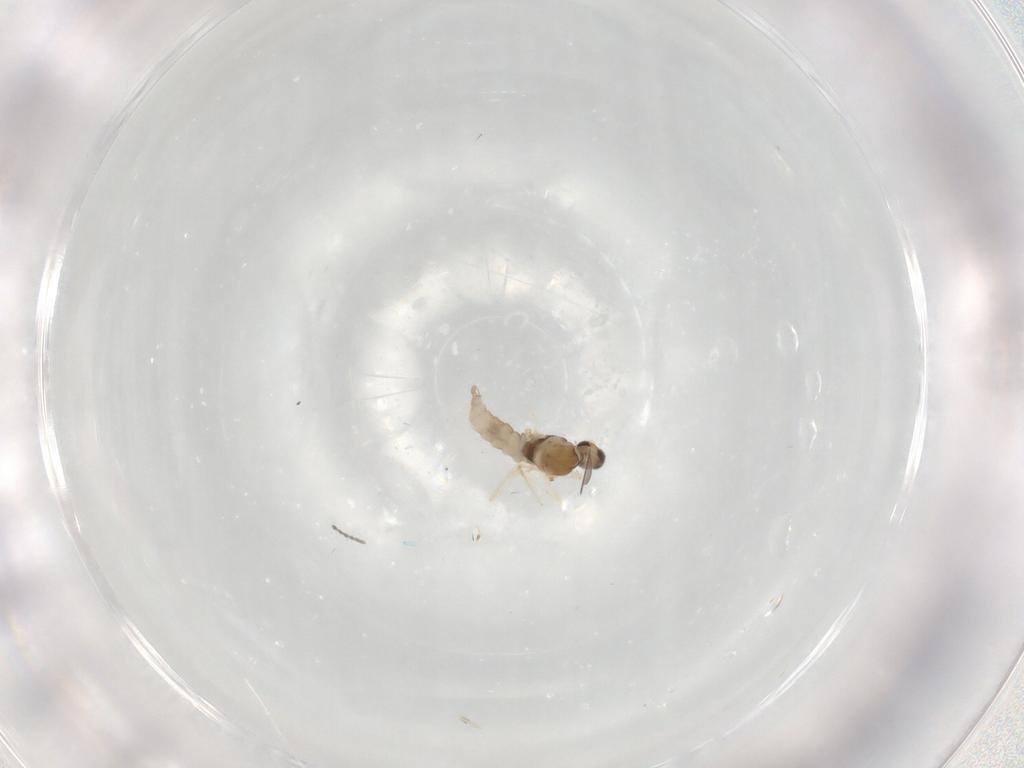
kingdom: Animalia
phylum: Arthropoda
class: Insecta
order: Diptera
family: Cecidomyiidae
